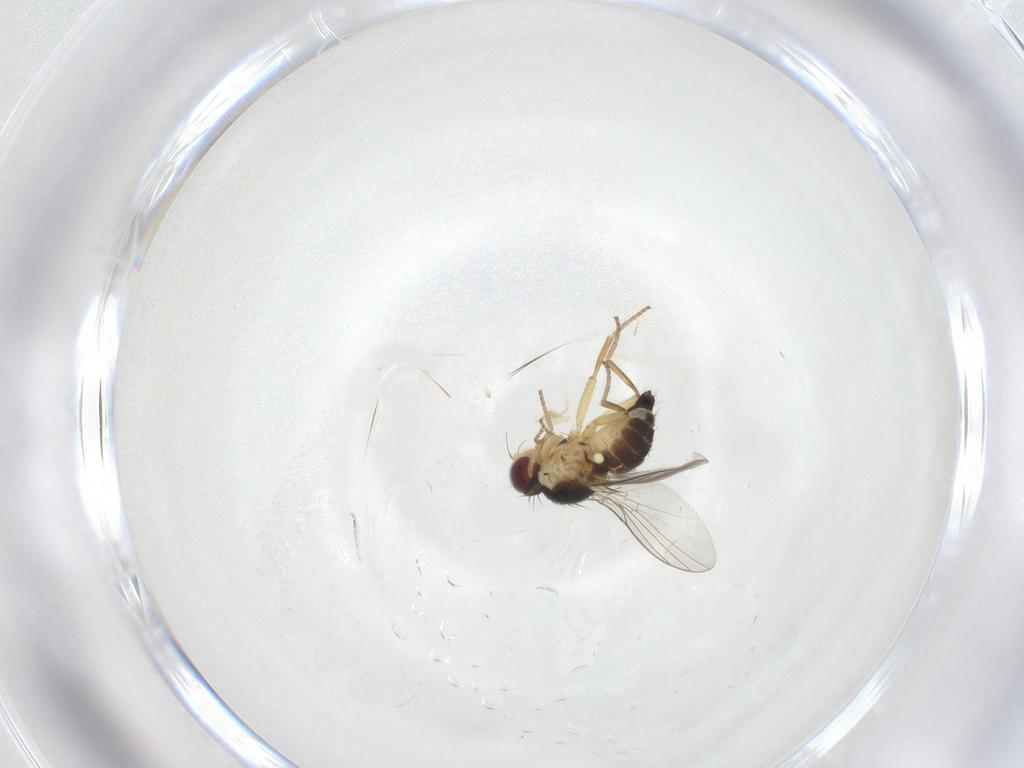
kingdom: Animalia
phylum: Arthropoda
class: Insecta
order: Diptera
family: Agromyzidae
